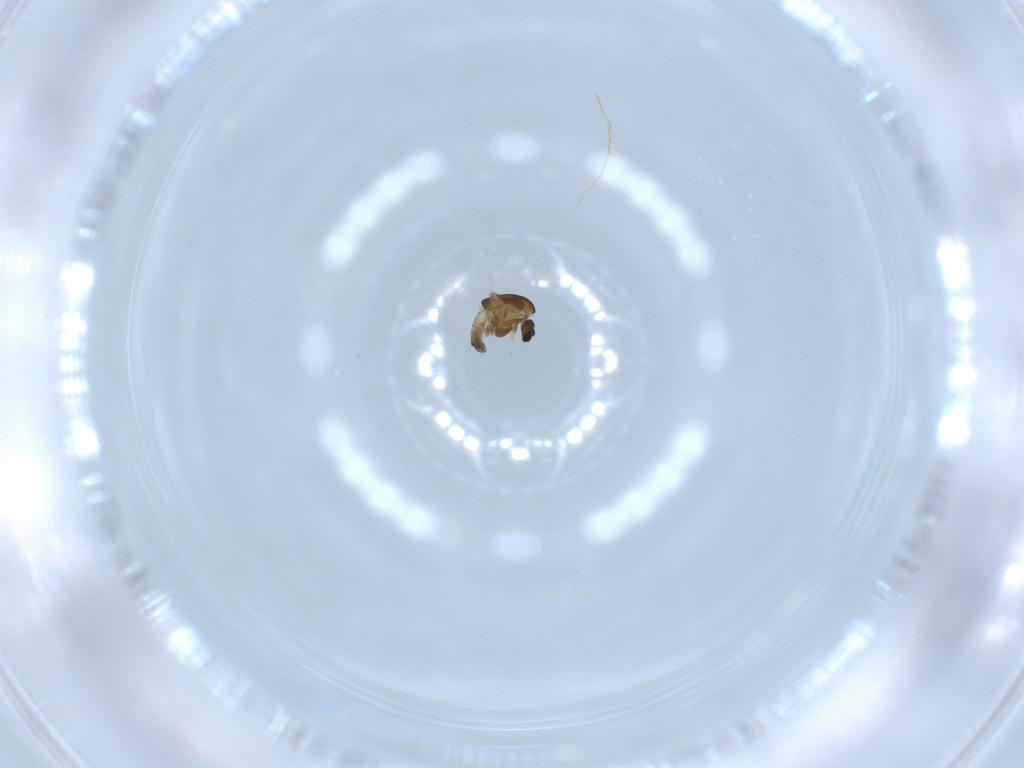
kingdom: Animalia
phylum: Arthropoda
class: Insecta
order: Diptera
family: Chironomidae
